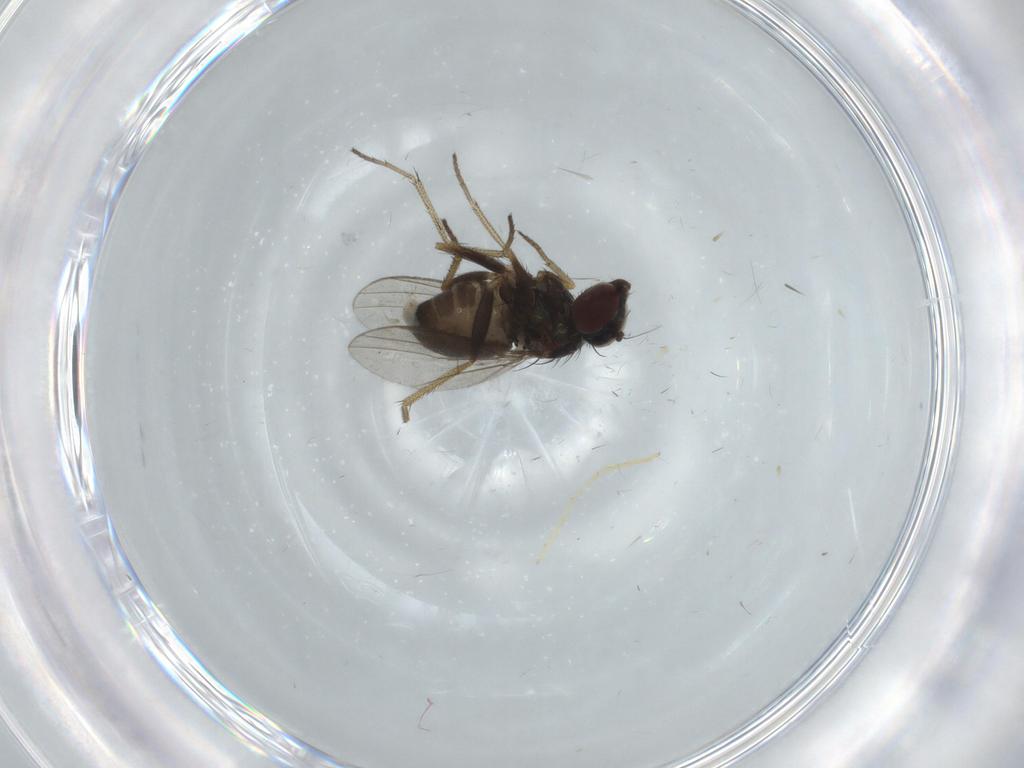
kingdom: Animalia
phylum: Arthropoda
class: Insecta
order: Diptera
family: Chironomidae
